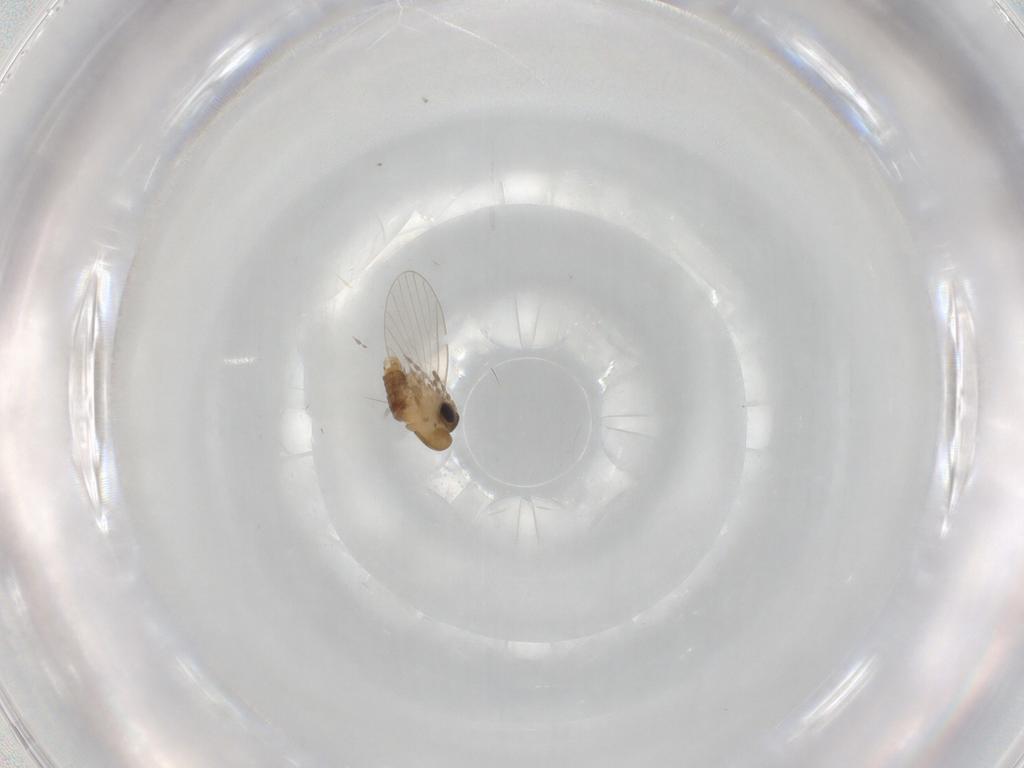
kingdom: Animalia
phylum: Arthropoda
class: Insecta
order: Diptera
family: Psychodidae
